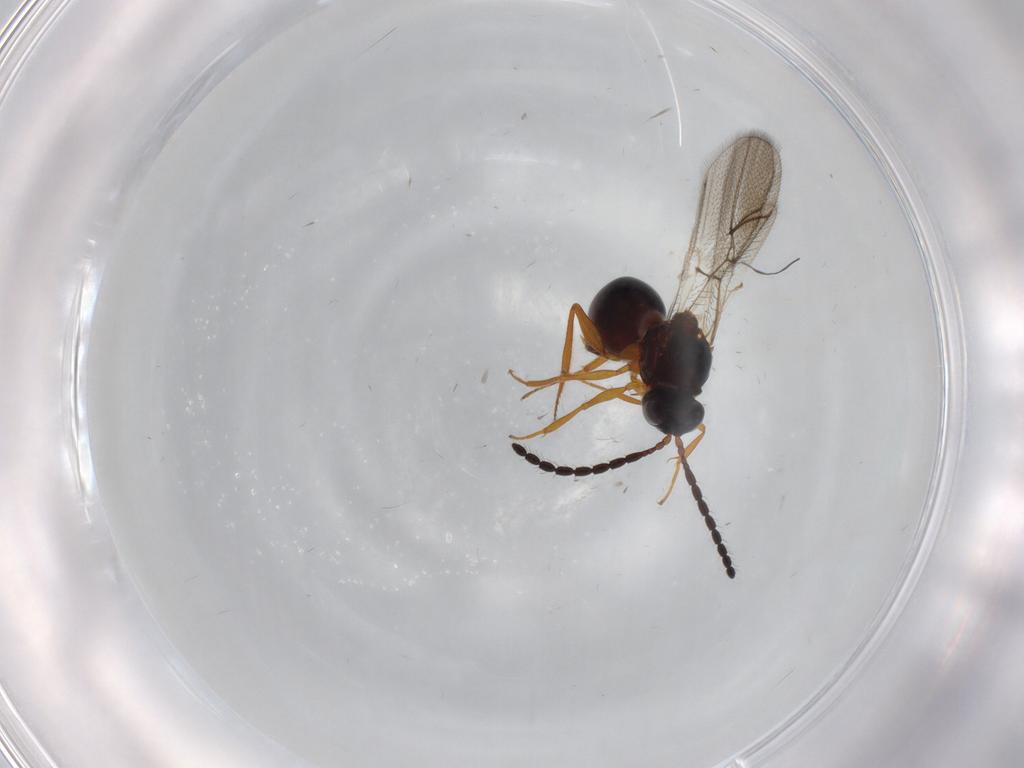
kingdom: Animalia
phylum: Arthropoda
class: Insecta
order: Hymenoptera
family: Figitidae
